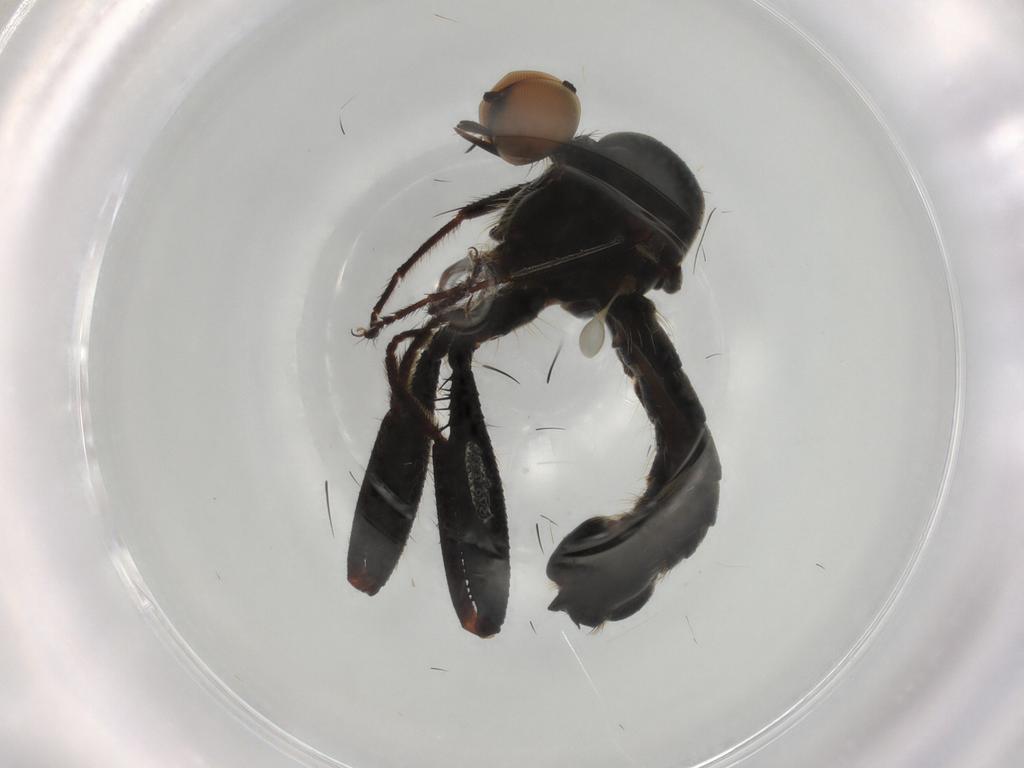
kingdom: Animalia
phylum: Arthropoda
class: Insecta
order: Diptera
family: Sciaridae
